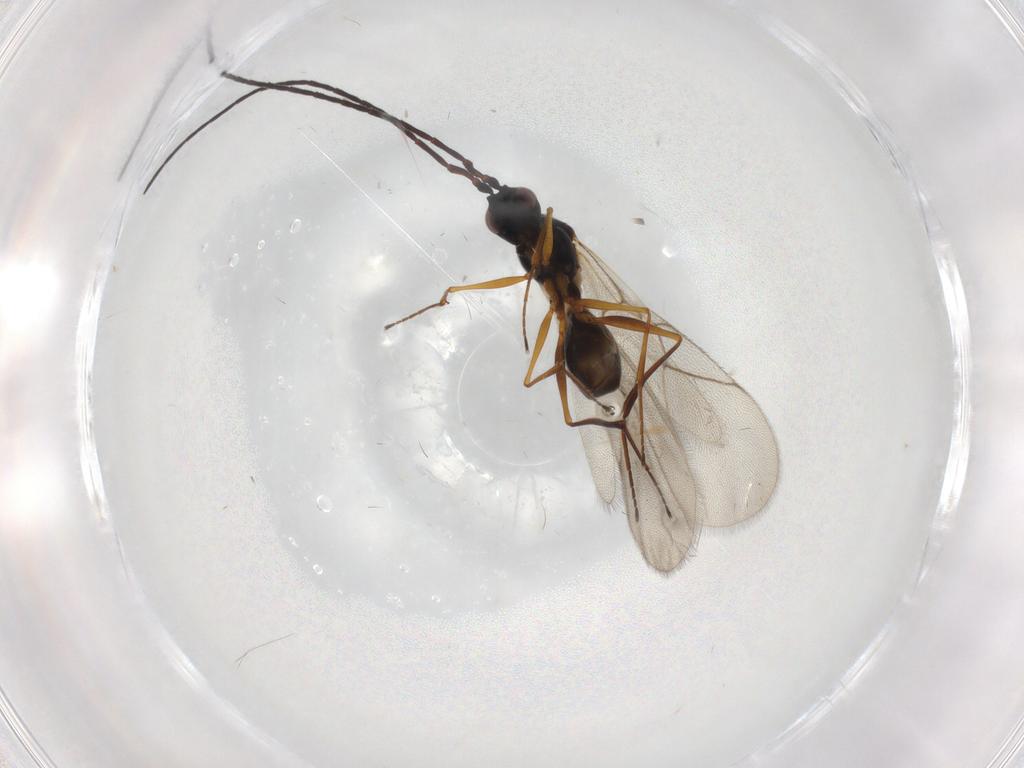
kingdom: Animalia
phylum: Arthropoda
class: Insecta
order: Hymenoptera
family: Figitidae
